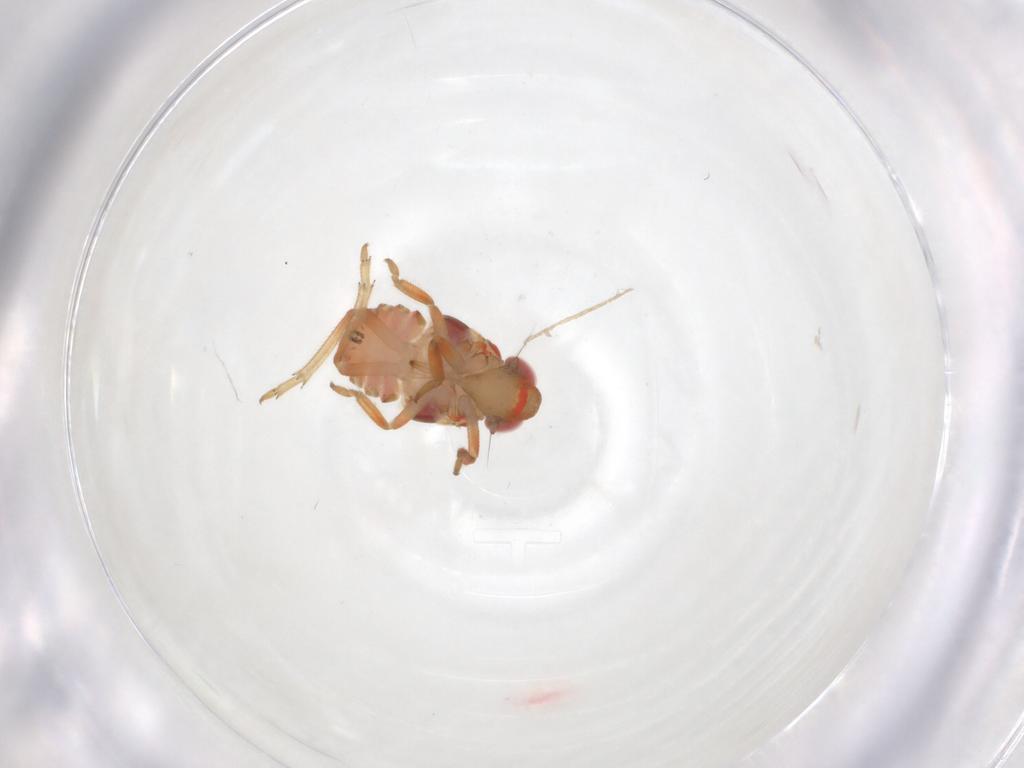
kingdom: Animalia
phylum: Arthropoda
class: Insecta
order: Hemiptera
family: Issidae
